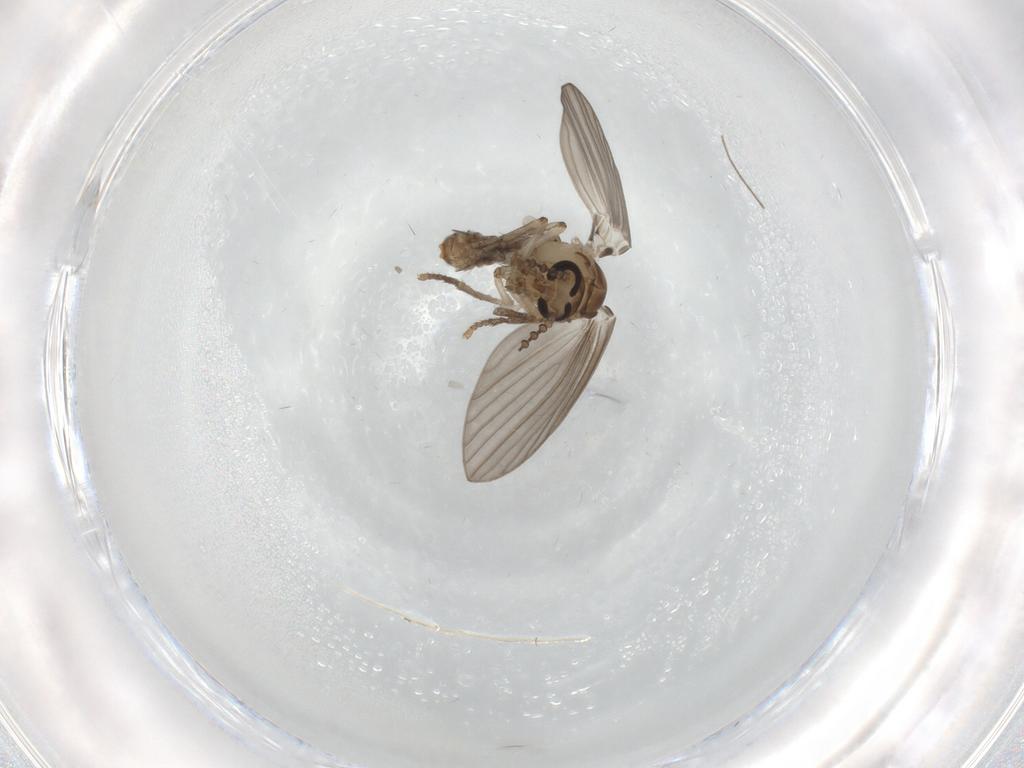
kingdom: Animalia
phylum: Arthropoda
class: Insecta
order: Diptera
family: Psychodidae
